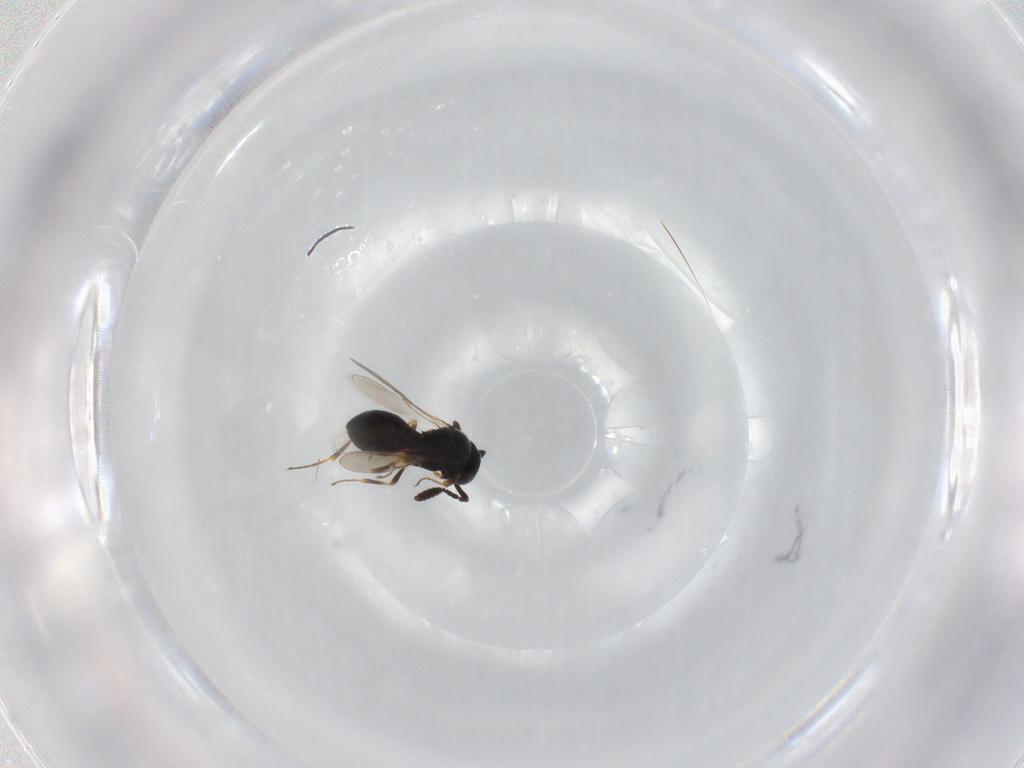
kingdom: Animalia
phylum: Arthropoda
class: Insecta
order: Hymenoptera
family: Scelionidae
